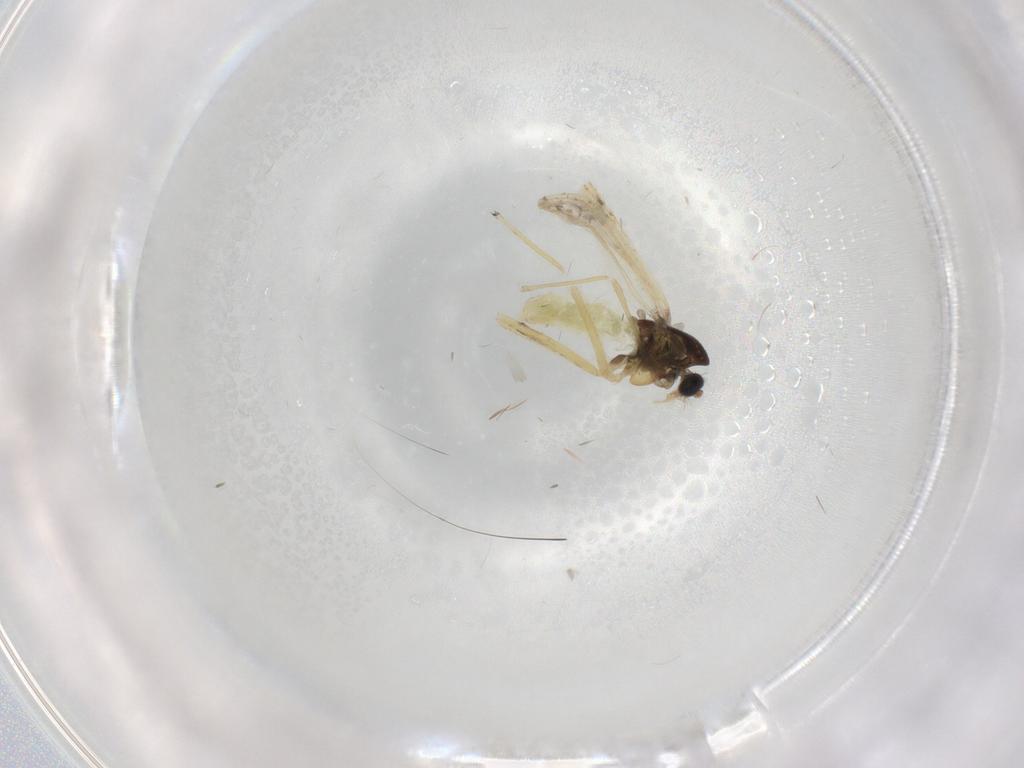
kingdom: Animalia
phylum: Arthropoda
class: Insecta
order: Diptera
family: Chironomidae
